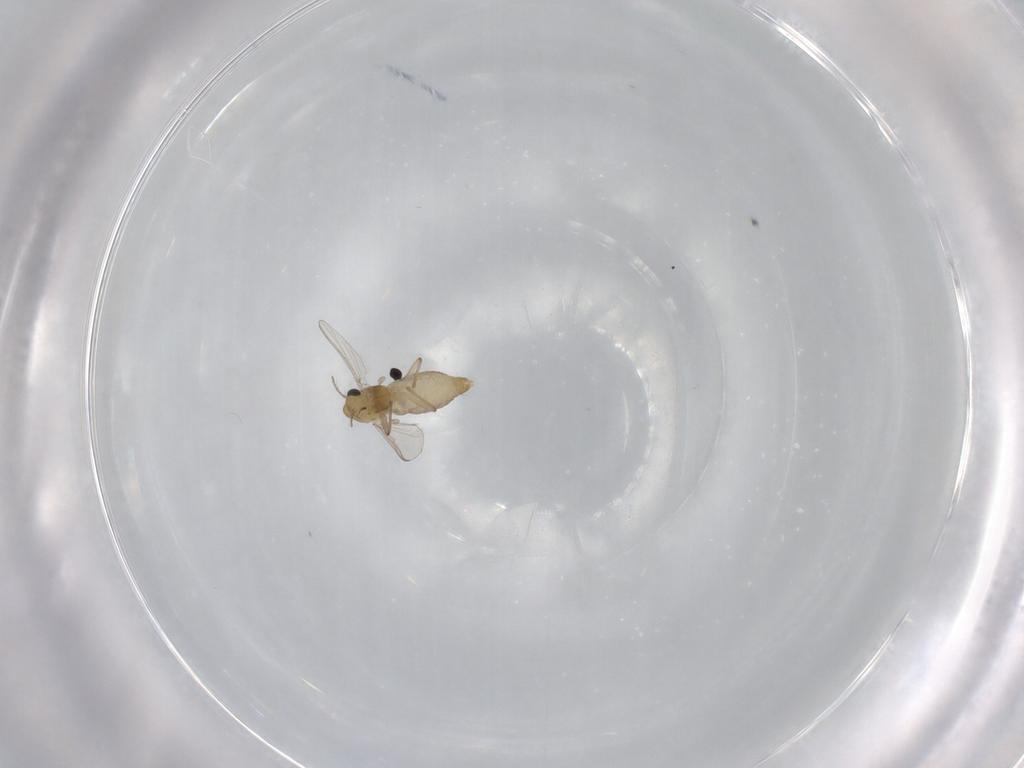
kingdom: Animalia
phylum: Arthropoda
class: Insecta
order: Diptera
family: Chironomidae
